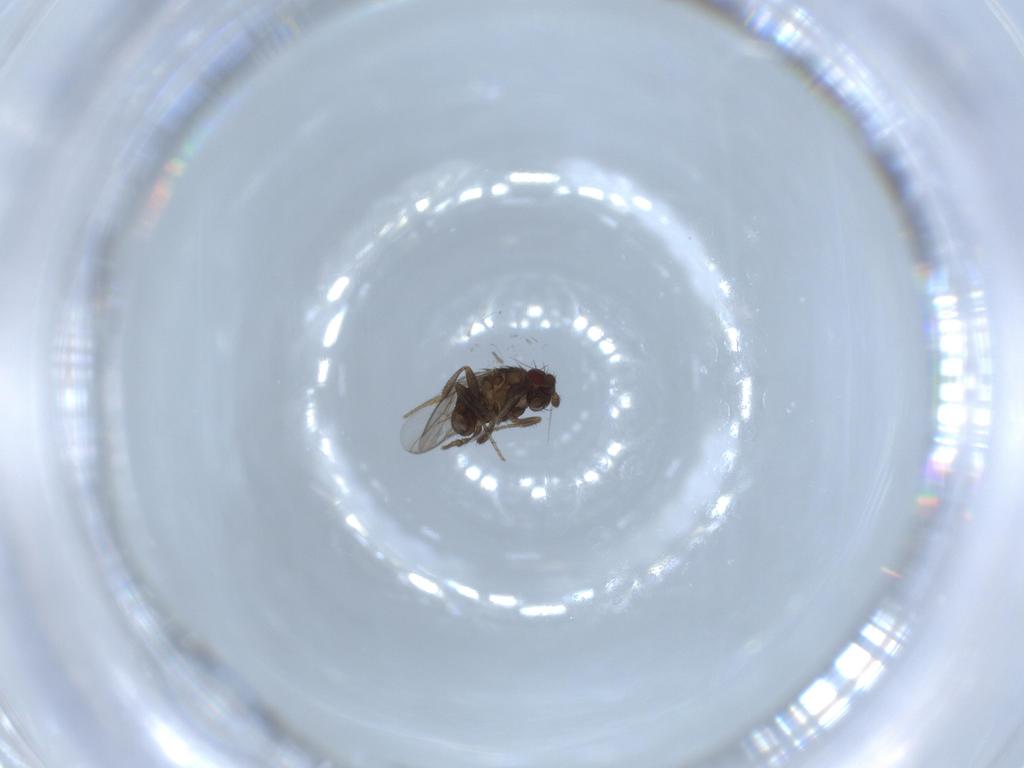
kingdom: Animalia
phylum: Arthropoda
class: Insecta
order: Diptera
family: Sphaeroceridae
